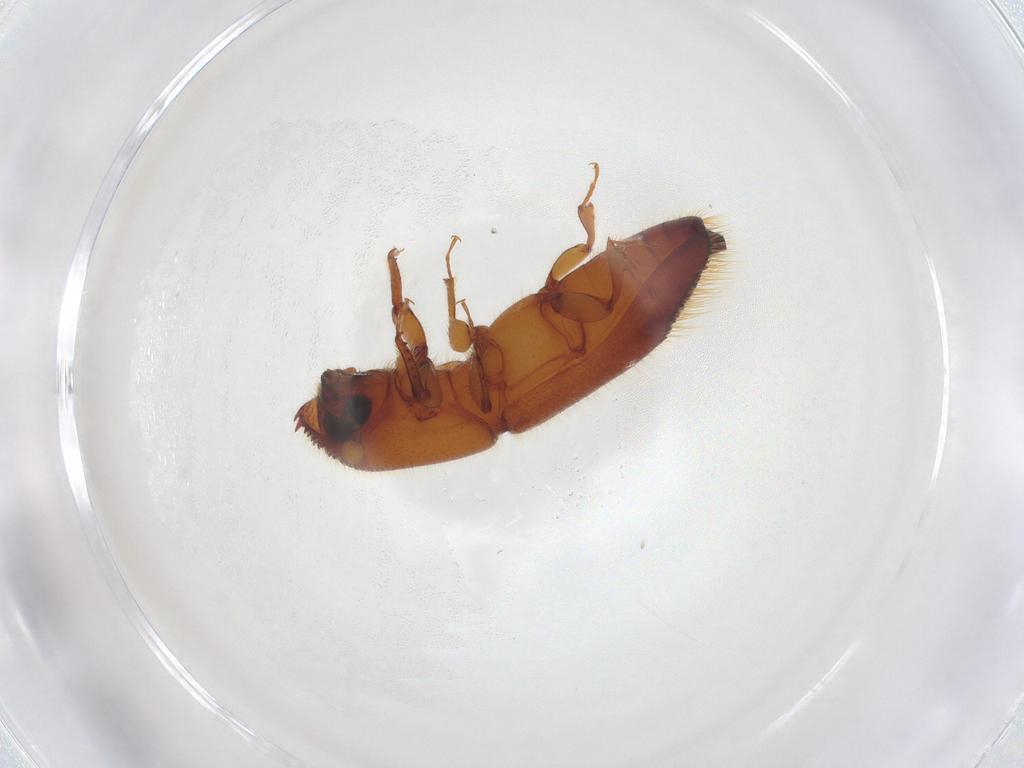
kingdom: Animalia
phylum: Arthropoda
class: Insecta
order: Coleoptera
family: Curculionidae
